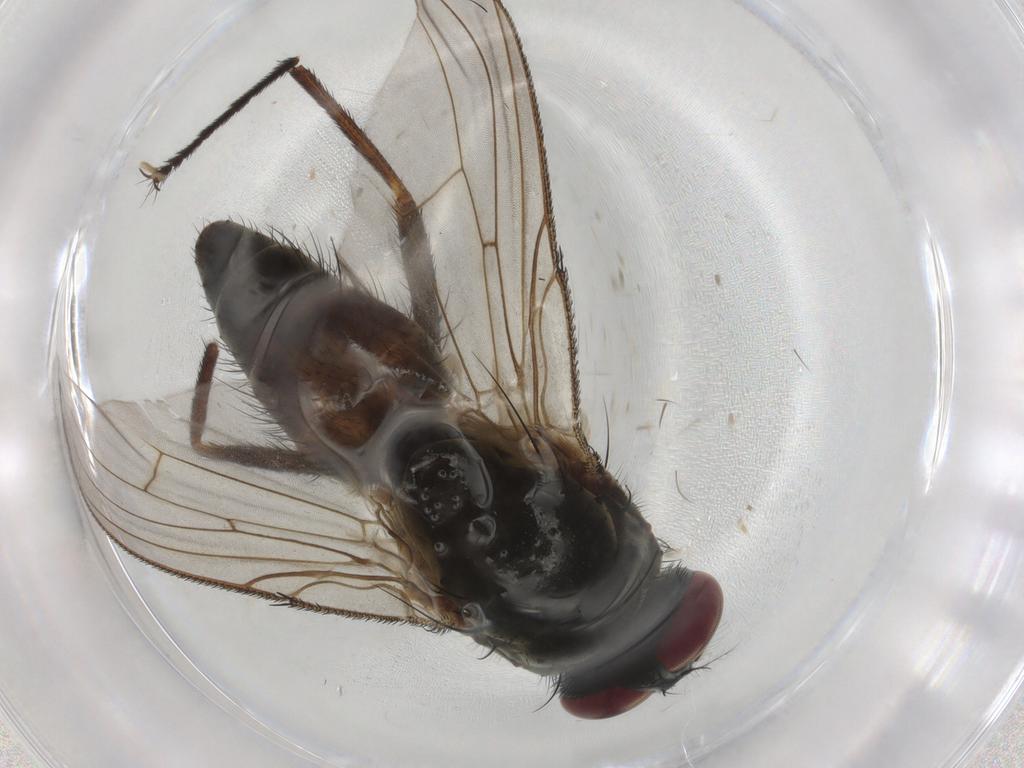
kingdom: Animalia
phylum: Arthropoda
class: Insecta
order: Diptera
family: Muscidae
